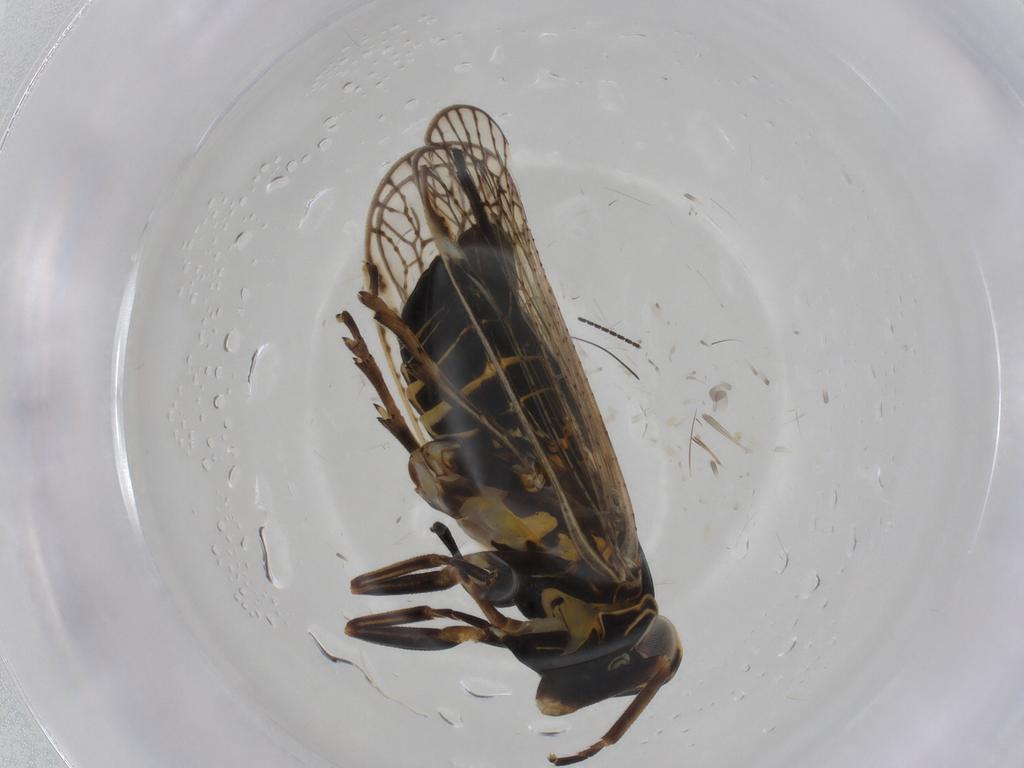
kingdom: Animalia
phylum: Arthropoda
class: Insecta
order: Hemiptera
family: Cixiidae
